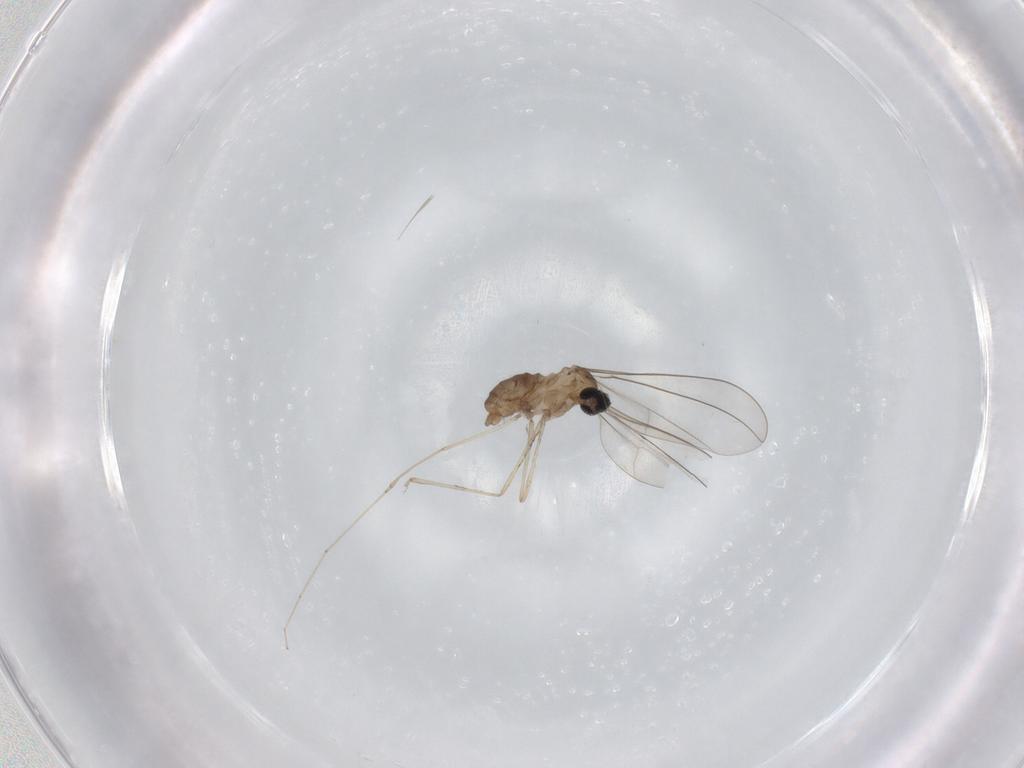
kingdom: Animalia
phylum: Arthropoda
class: Insecta
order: Diptera
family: Cecidomyiidae
